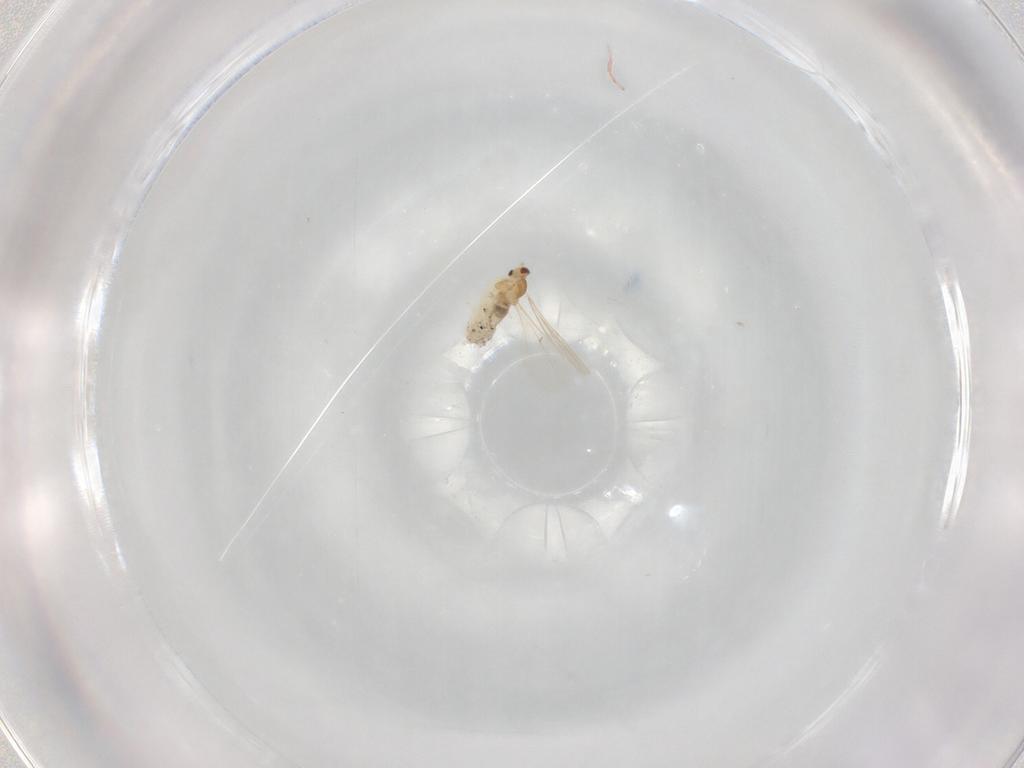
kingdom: Animalia
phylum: Arthropoda
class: Insecta
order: Diptera
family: Cecidomyiidae
